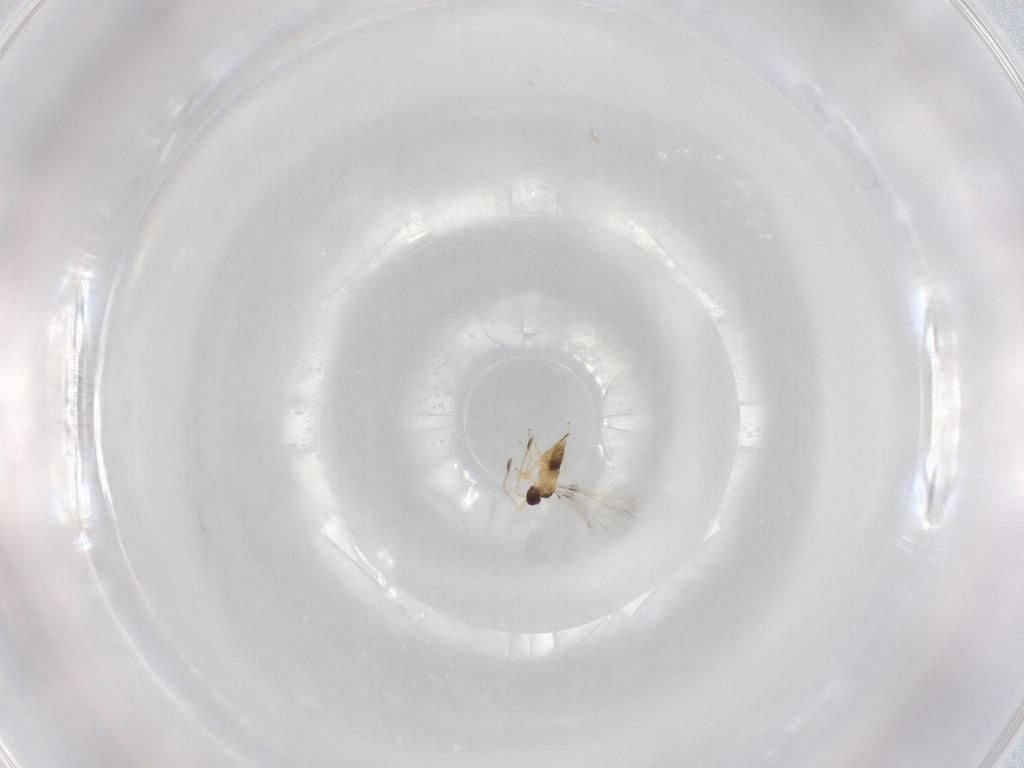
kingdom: Animalia
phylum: Arthropoda
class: Insecta
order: Hymenoptera
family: Mymaridae
